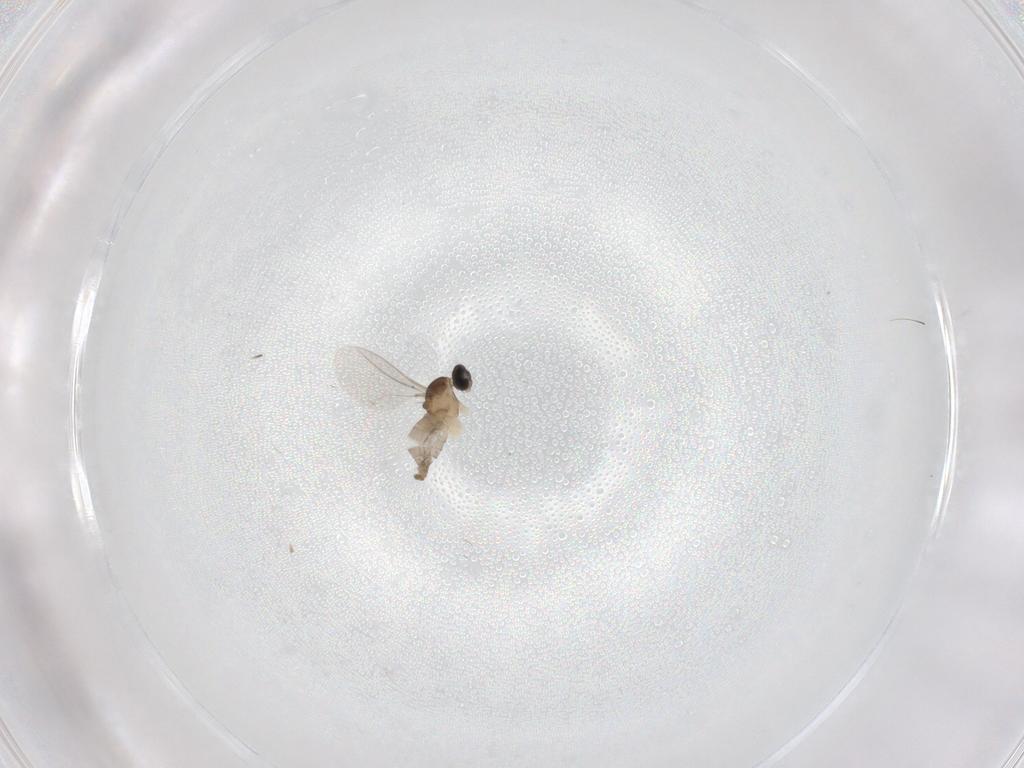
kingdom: Animalia
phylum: Arthropoda
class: Insecta
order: Diptera
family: Cecidomyiidae
